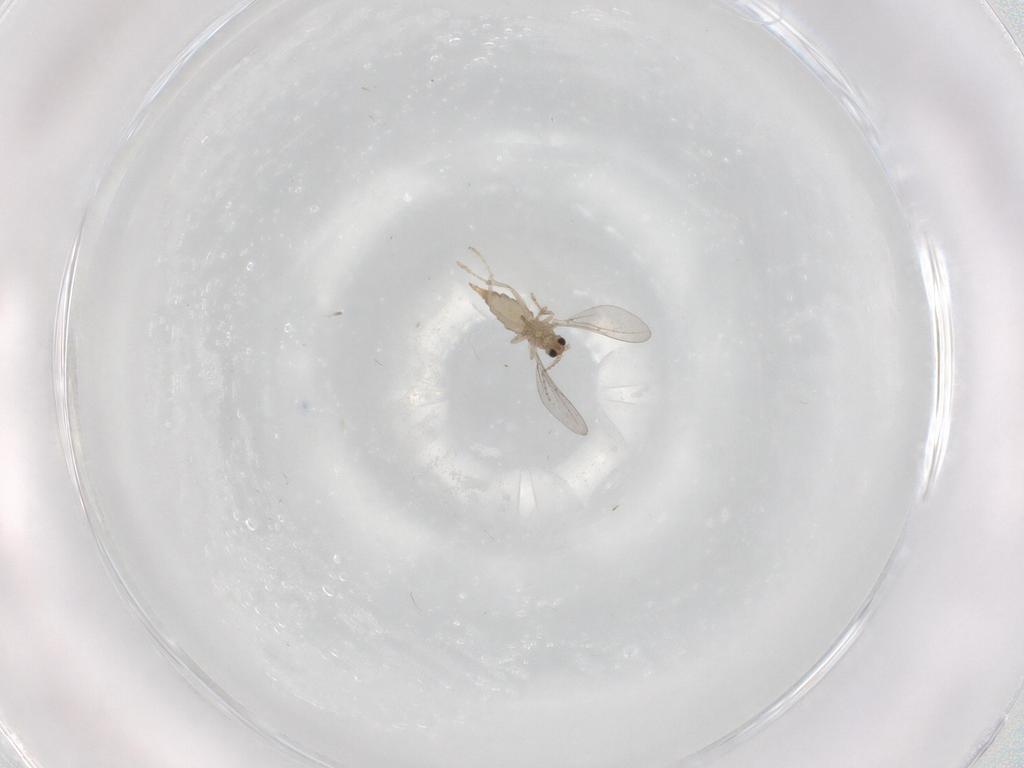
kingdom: Animalia
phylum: Arthropoda
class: Insecta
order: Diptera
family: Cecidomyiidae
